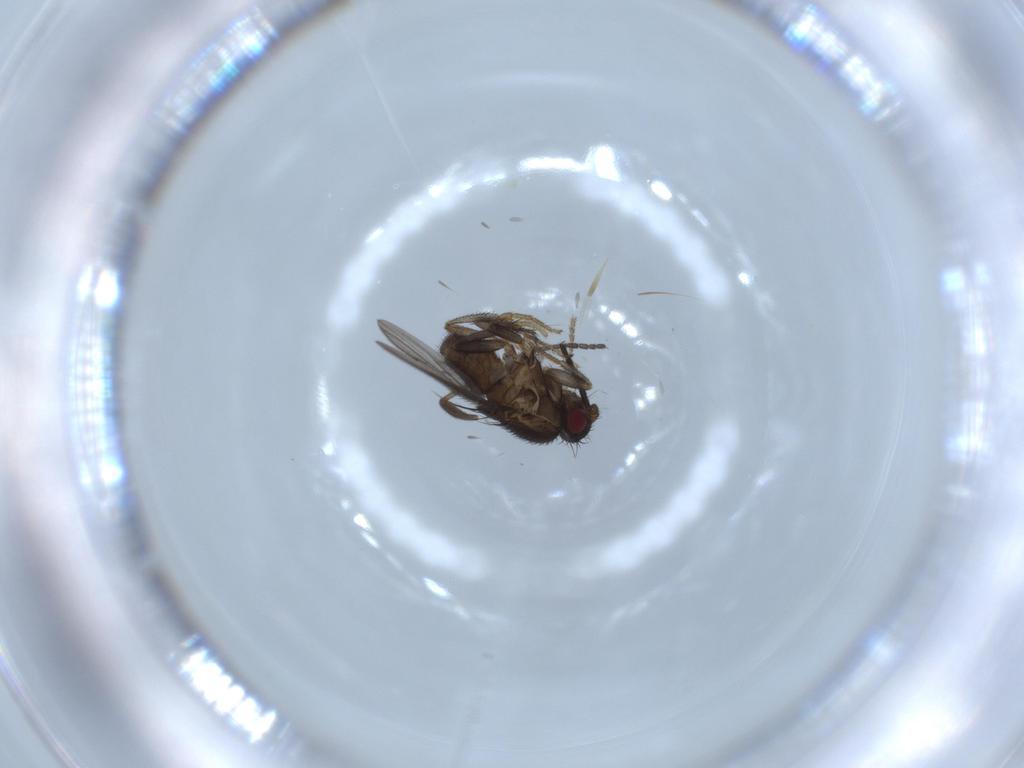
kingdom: Animalia
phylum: Arthropoda
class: Insecta
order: Diptera
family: Sphaeroceridae
